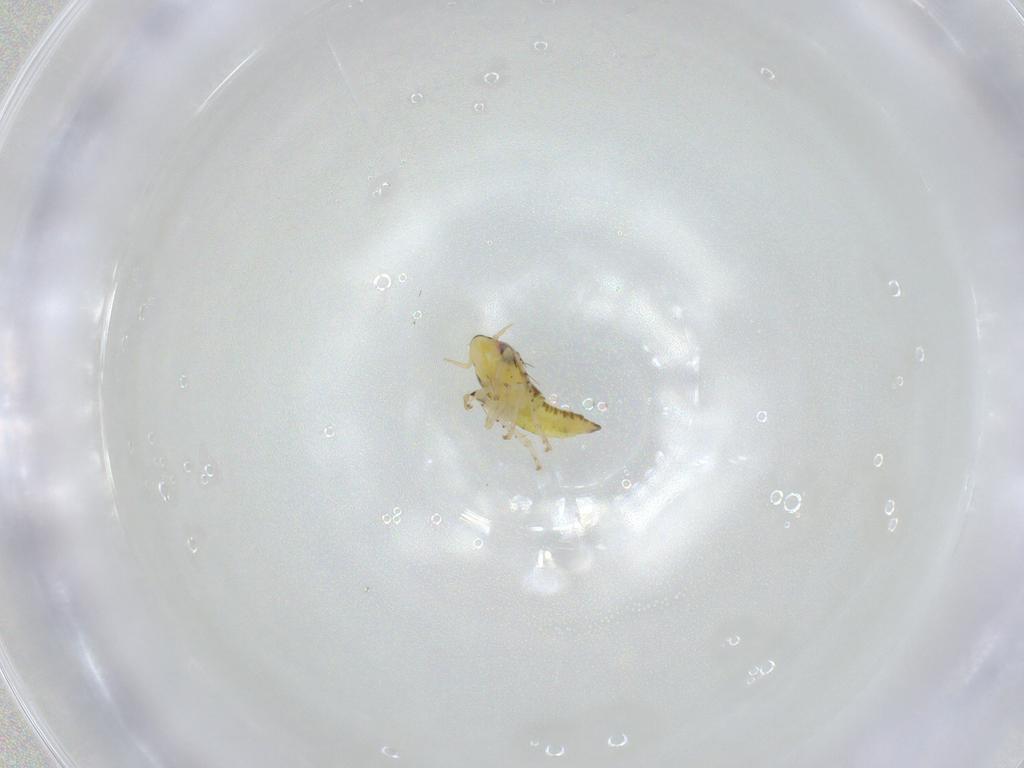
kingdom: Animalia
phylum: Arthropoda
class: Insecta
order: Hemiptera
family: Cicadellidae
